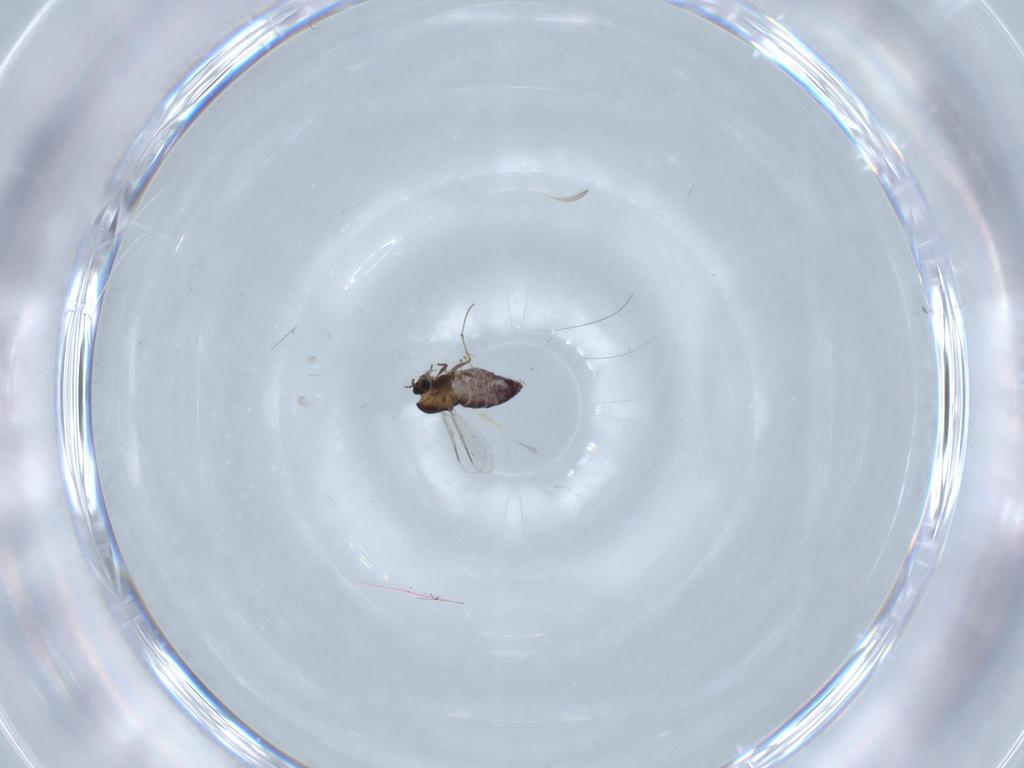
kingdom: Animalia
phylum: Arthropoda
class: Insecta
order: Diptera
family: Chironomidae
